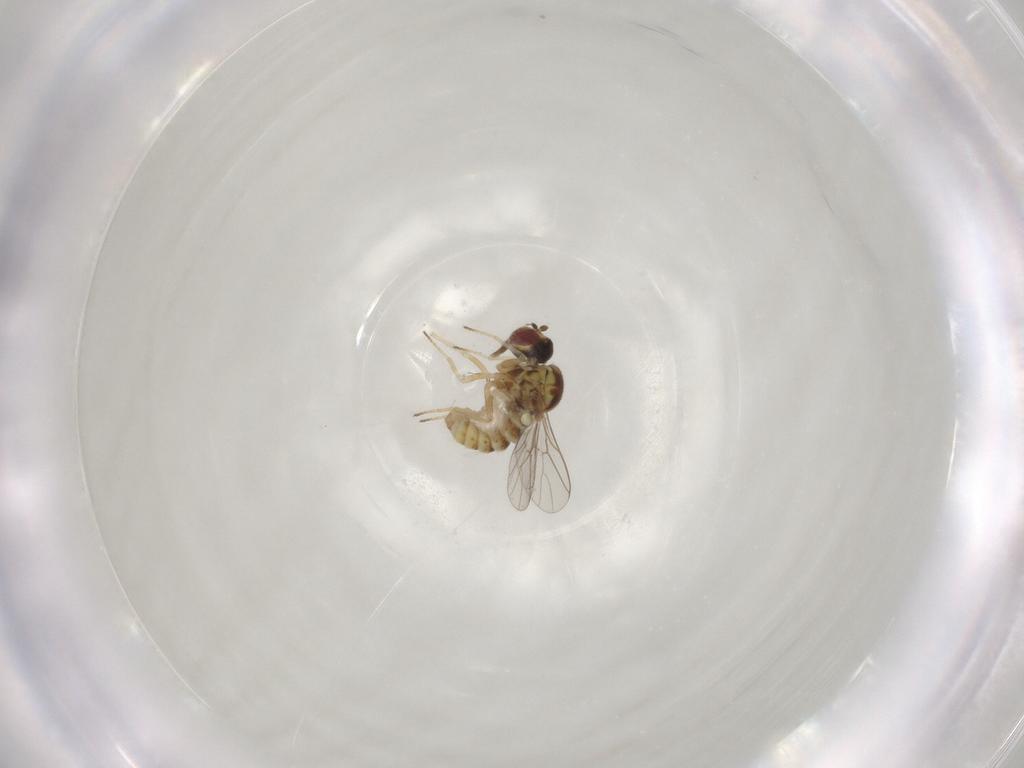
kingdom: Animalia
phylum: Arthropoda
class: Insecta
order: Diptera
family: Mythicomyiidae
